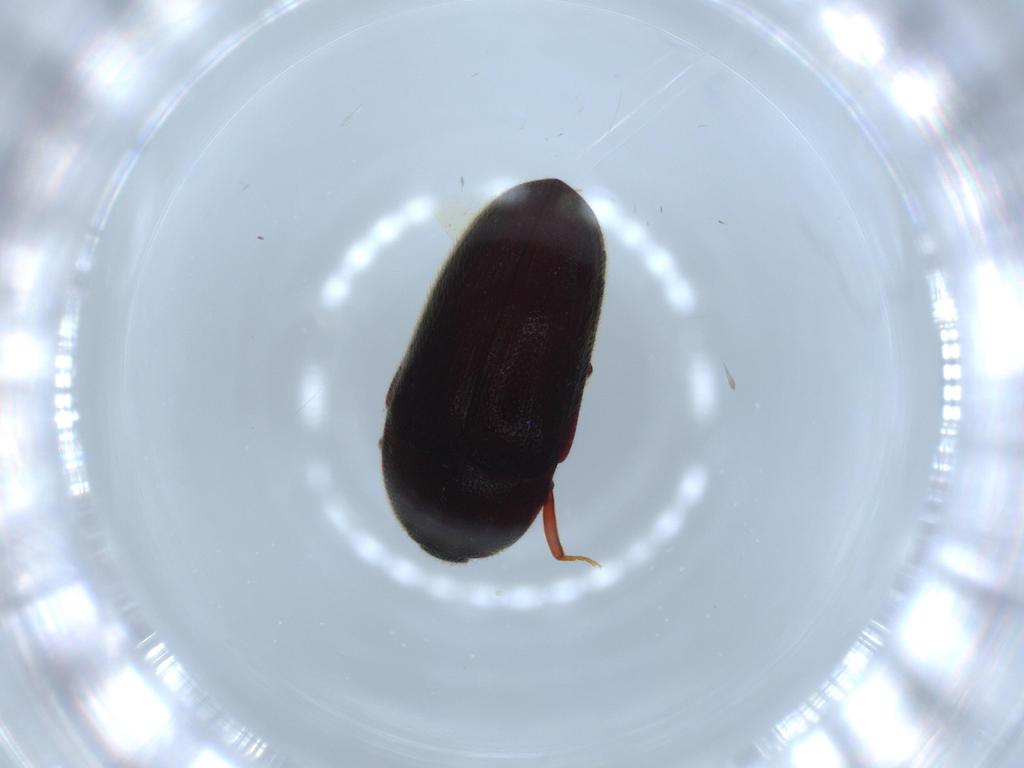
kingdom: Animalia
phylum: Arthropoda
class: Insecta
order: Coleoptera
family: Throscidae
